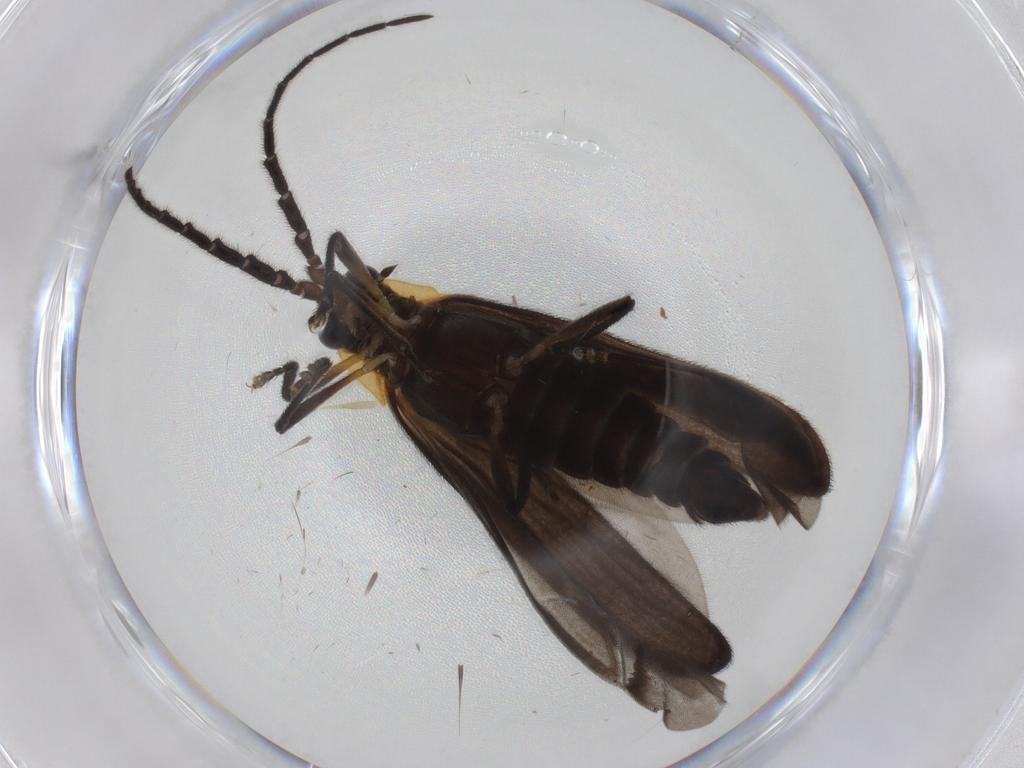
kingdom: Animalia
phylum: Arthropoda
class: Insecta
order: Coleoptera
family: Lycidae
